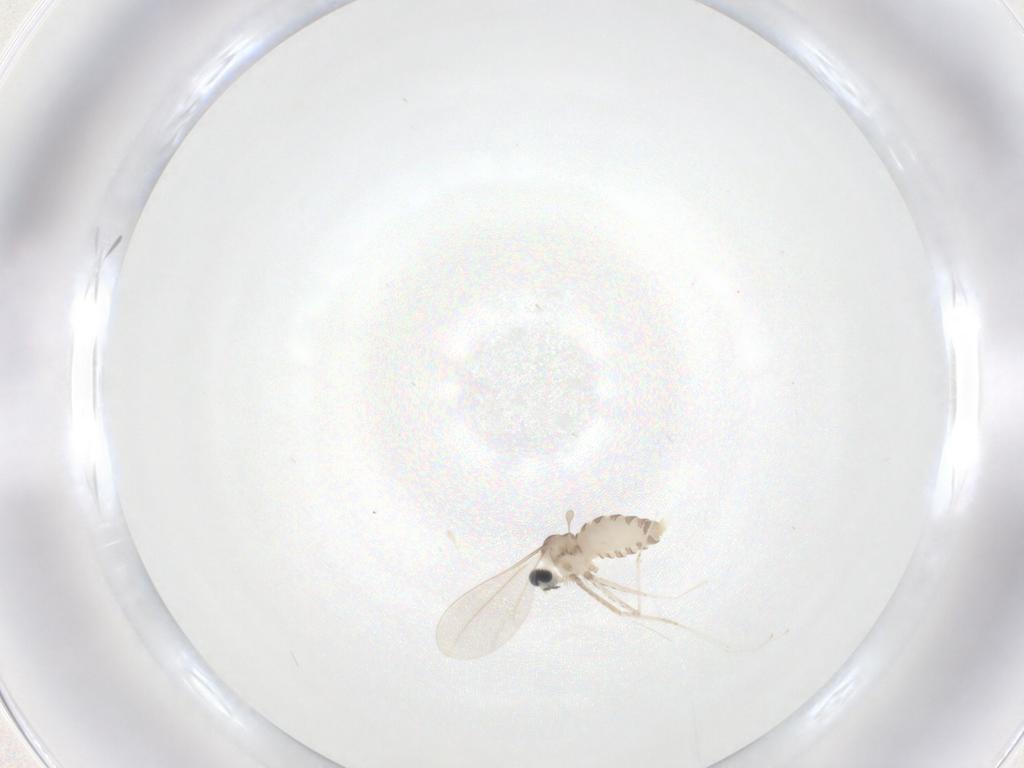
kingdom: Animalia
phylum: Arthropoda
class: Insecta
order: Diptera
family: Cecidomyiidae
